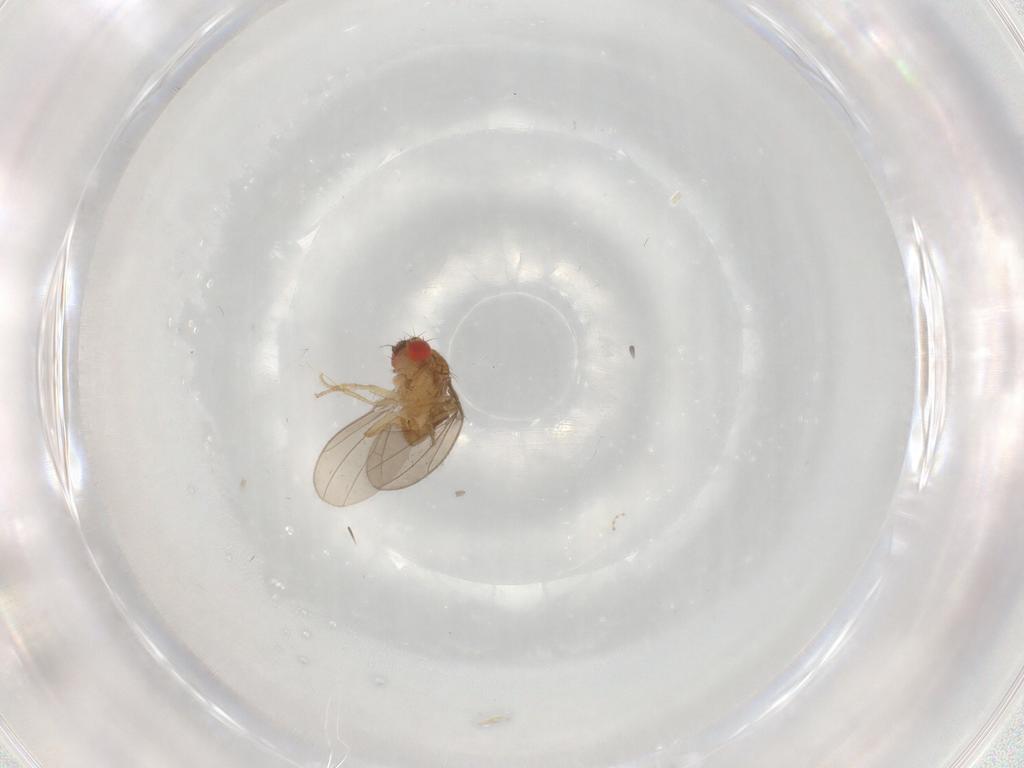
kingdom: Animalia
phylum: Arthropoda
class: Insecta
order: Diptera
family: Drosophilidae
